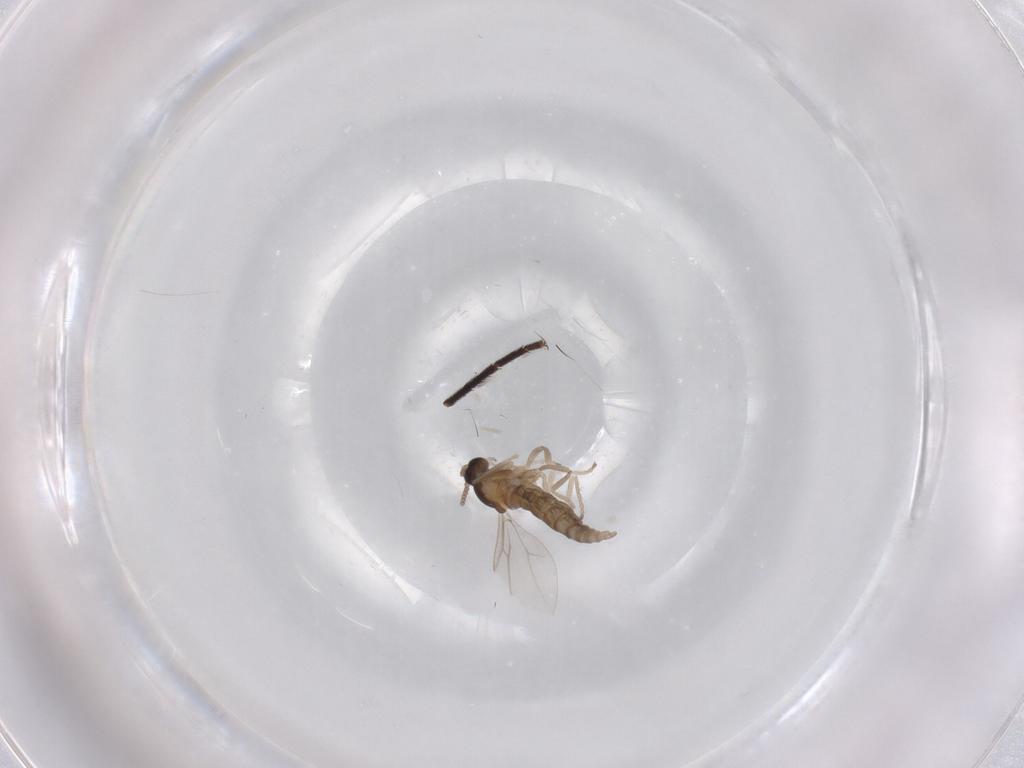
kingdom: Animalia
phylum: Arthropoda
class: Insecta
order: Diptera
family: Cecidomyiidae
